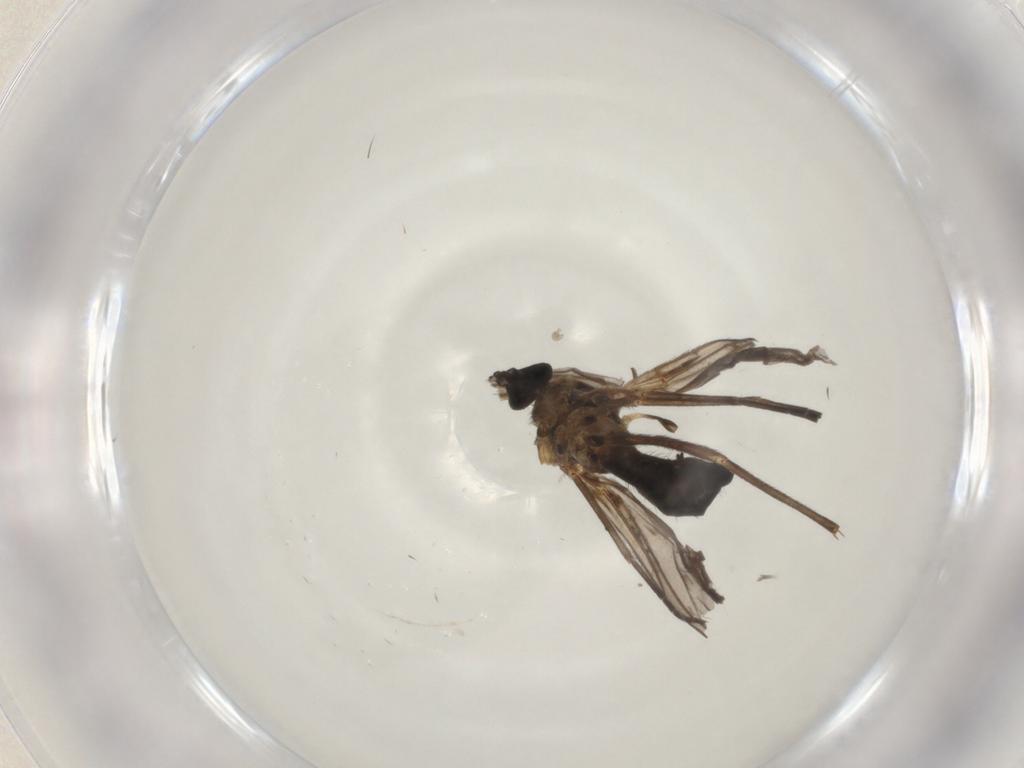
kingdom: Animalia
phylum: Arthropoda
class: Insecta
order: Diptera
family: Sciaridae
